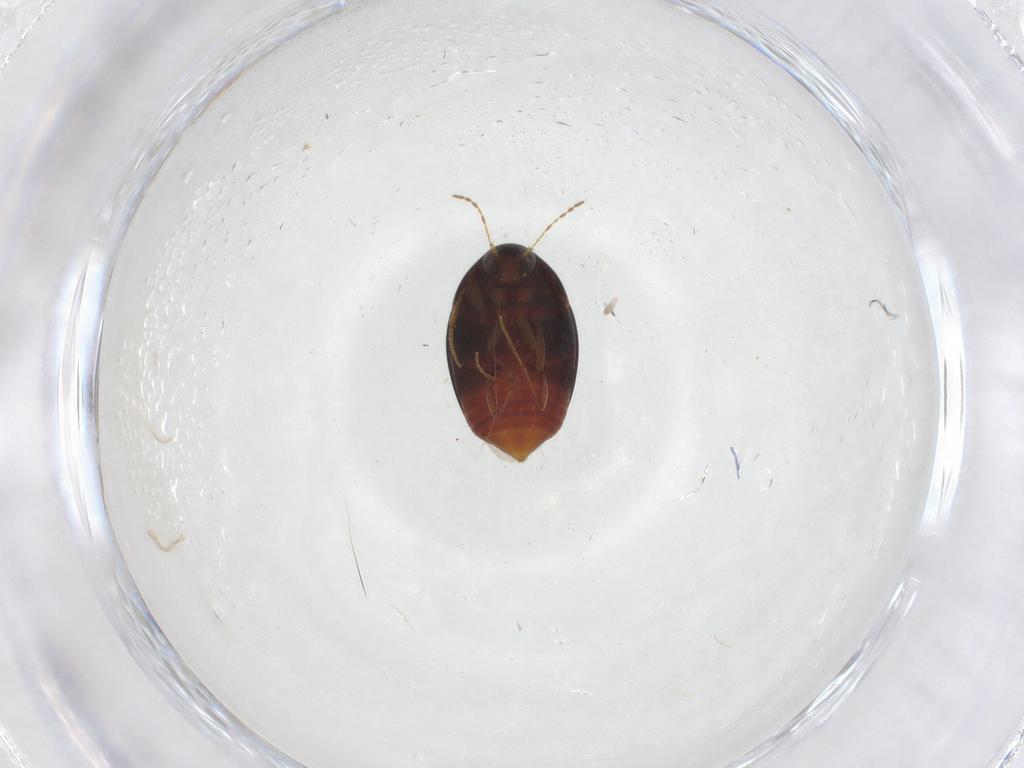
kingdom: Animalia
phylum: Arthropoda
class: Insecta
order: Coleoptera
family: Staphylinidae
